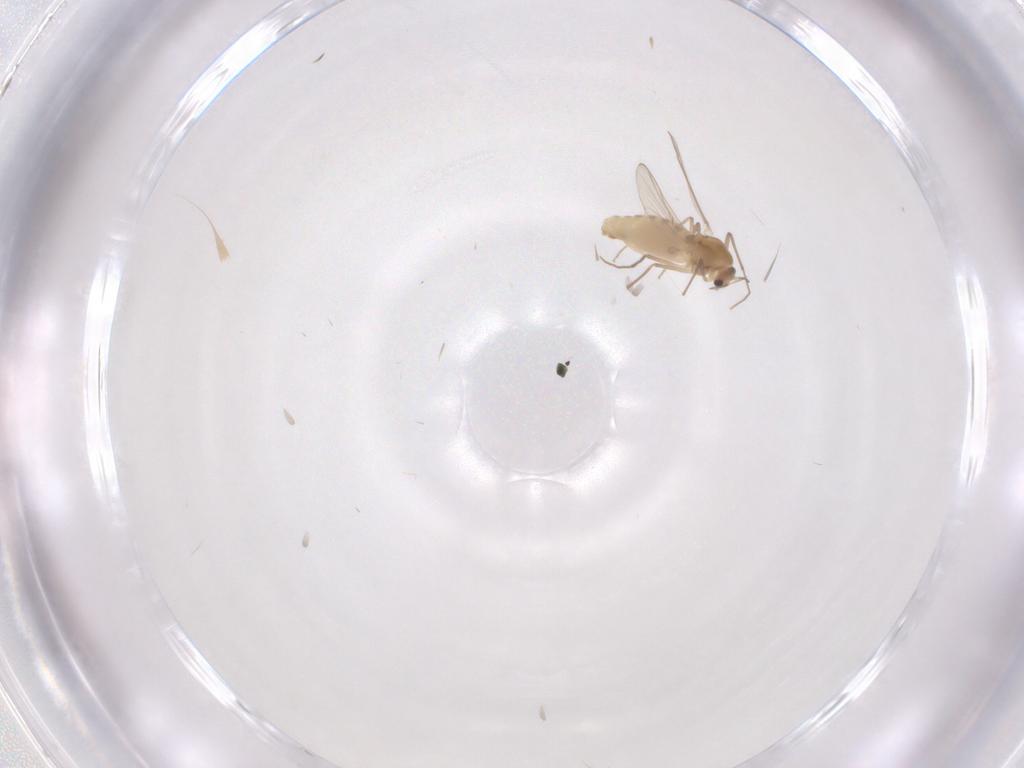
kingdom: Animalia
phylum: Arthropoda
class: Insecta
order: Diptera
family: Chironomidae
